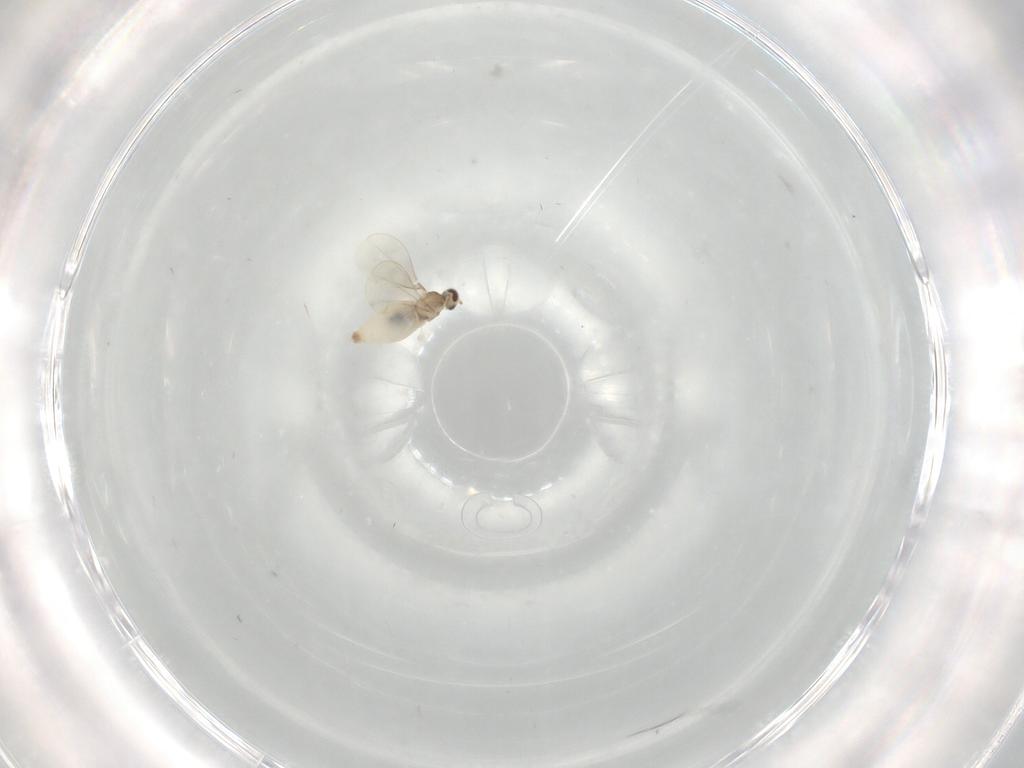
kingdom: Animalia
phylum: Arthropoda
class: Insecta
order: Diptera
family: Cecidomyiidae
